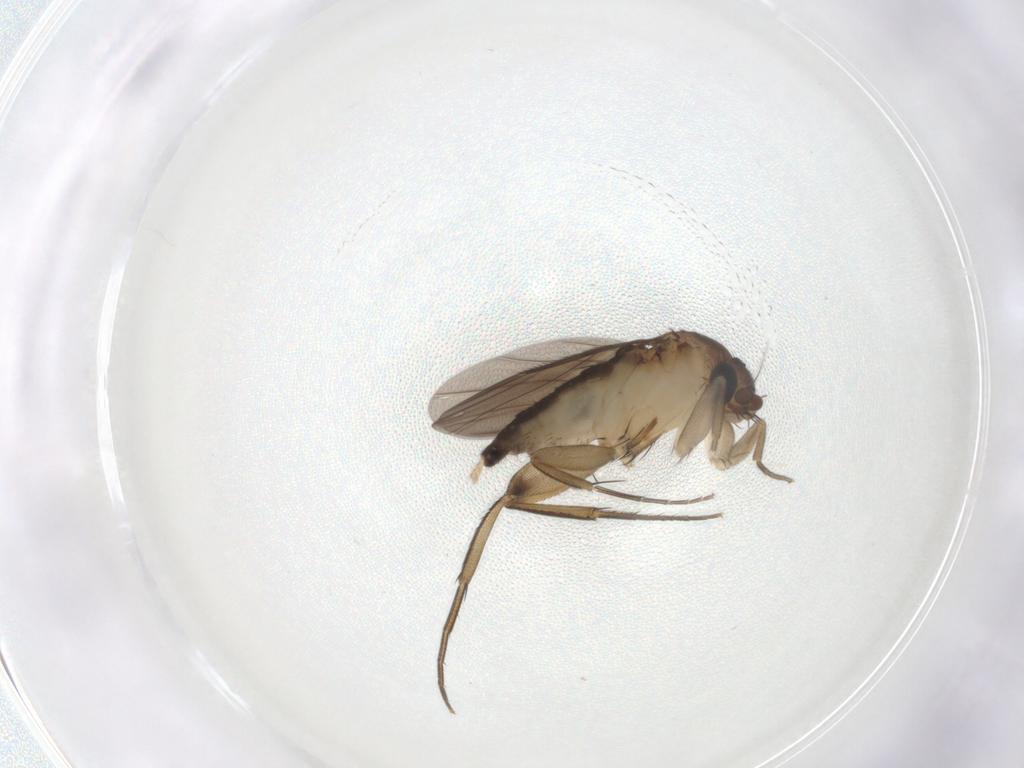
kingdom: Animalia
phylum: Arthropoda
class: Insecta
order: Diptera
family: Phoridae
